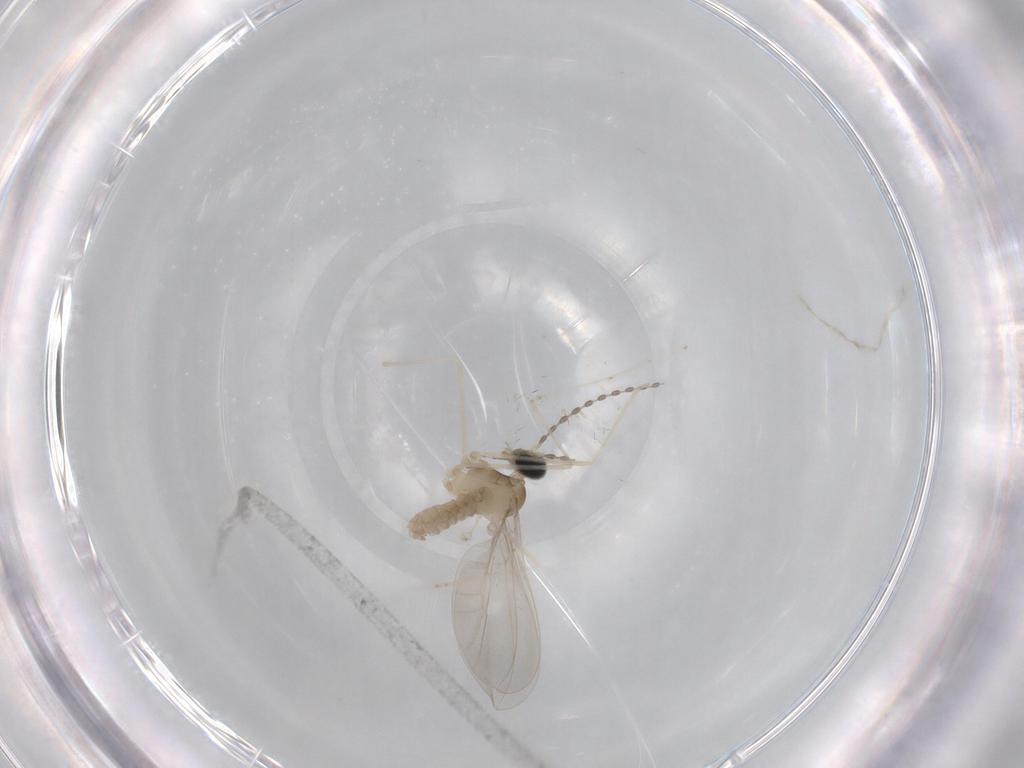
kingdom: Animalia
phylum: Arthropoda
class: Insecta
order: Diptera
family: Cecidomyiidae
